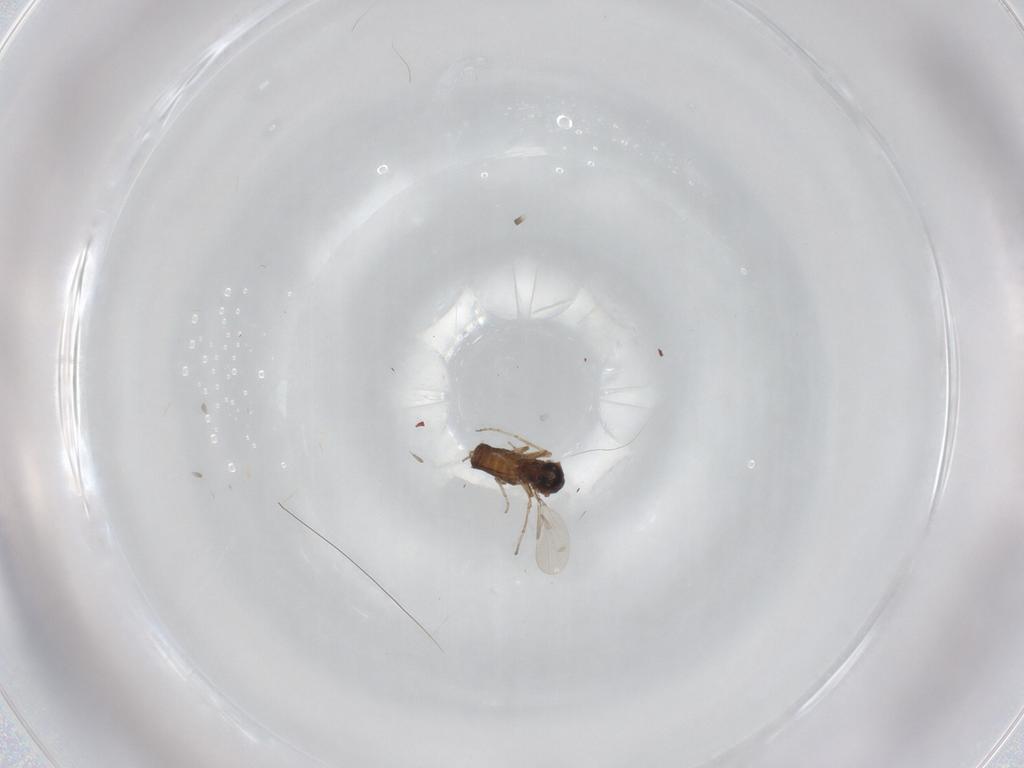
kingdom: Animalia
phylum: Arthropoda
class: Insecta
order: Diptera
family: Ceratopogonidae
